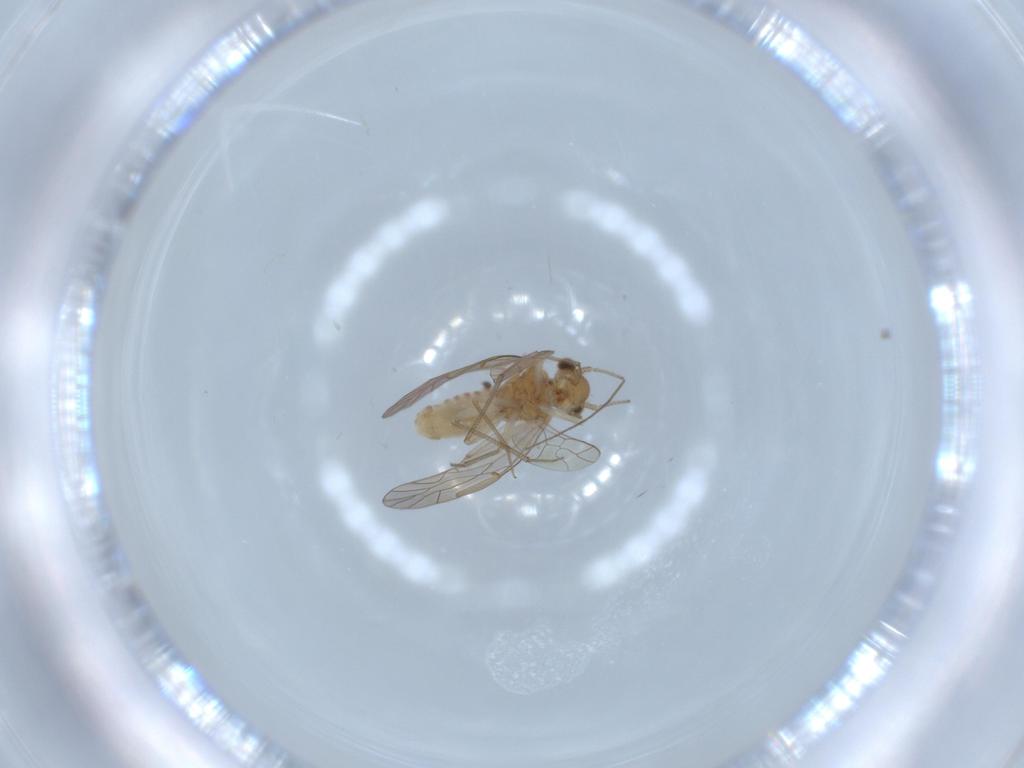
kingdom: Animalia
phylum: Arthropoda
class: Insecta
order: Psocodea
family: Lachesillidae
